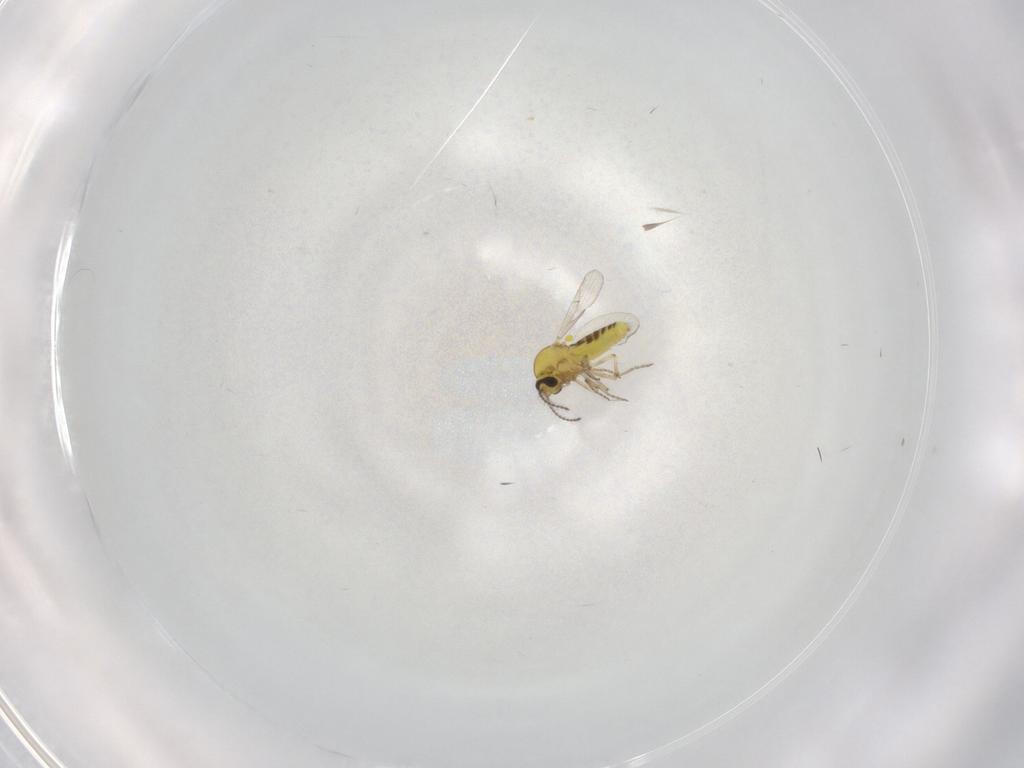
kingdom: Animalia
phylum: Arthropoda
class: Insecta
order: Diptera
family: Ceratopogonidae
